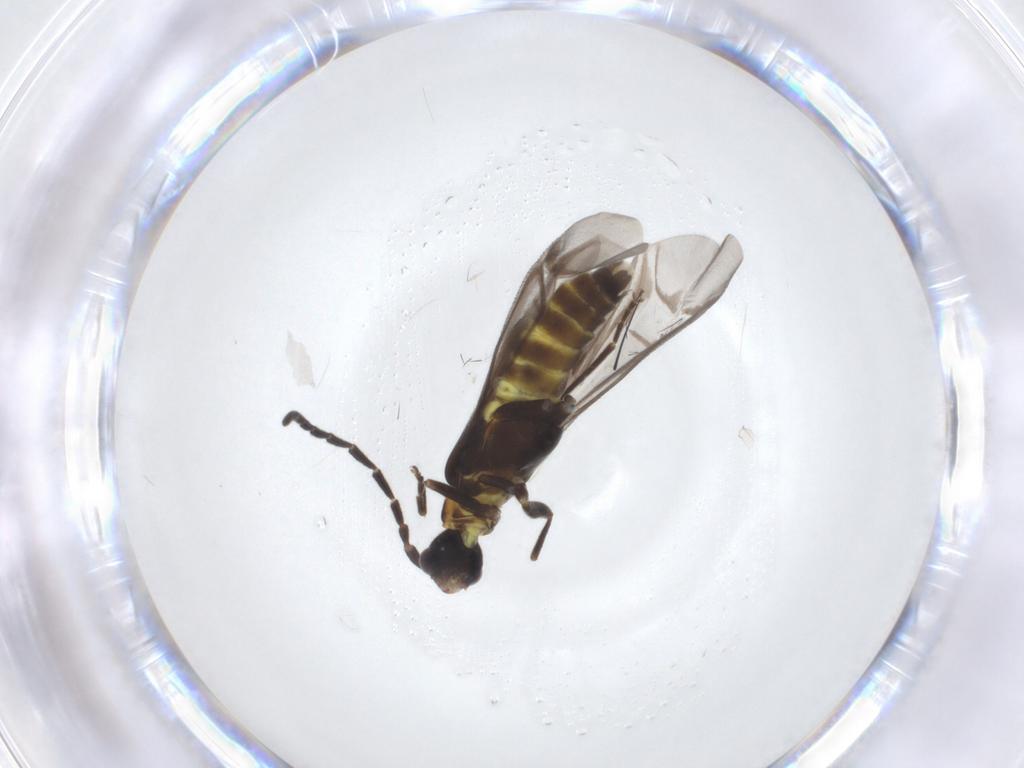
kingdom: Animalia
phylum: Arthropoda
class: Insecta
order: Coleoptera
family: Cantharidae
